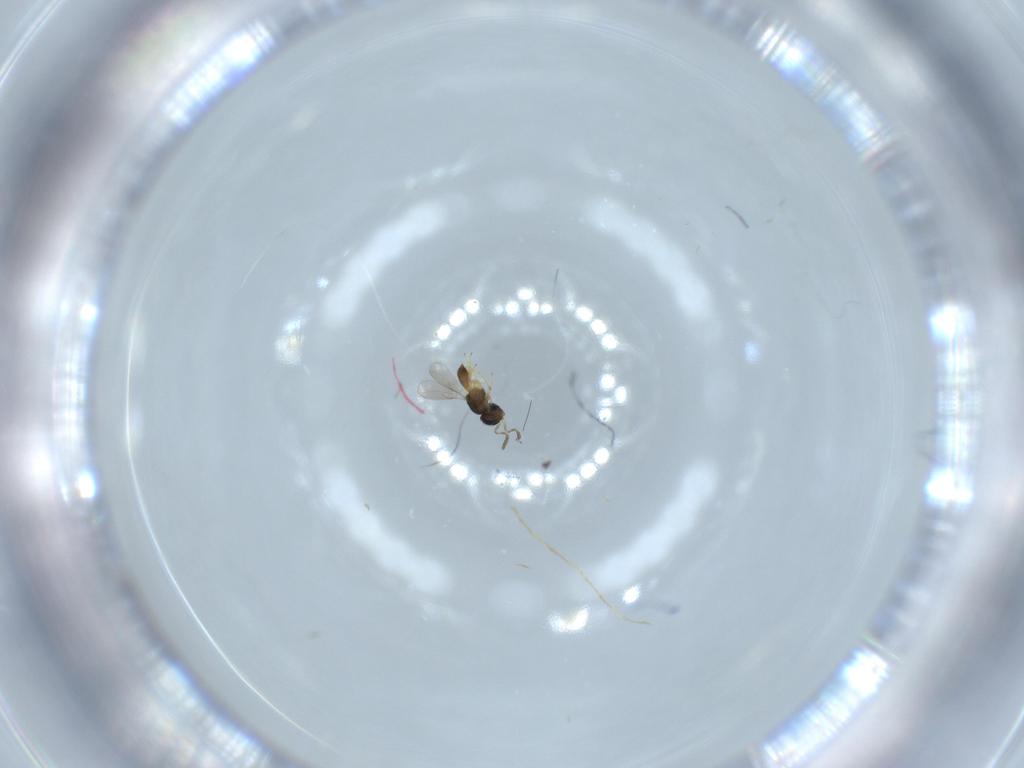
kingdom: Animalia
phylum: Arthropoda
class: Insecta
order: Hymenoptera
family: Scelionidae
